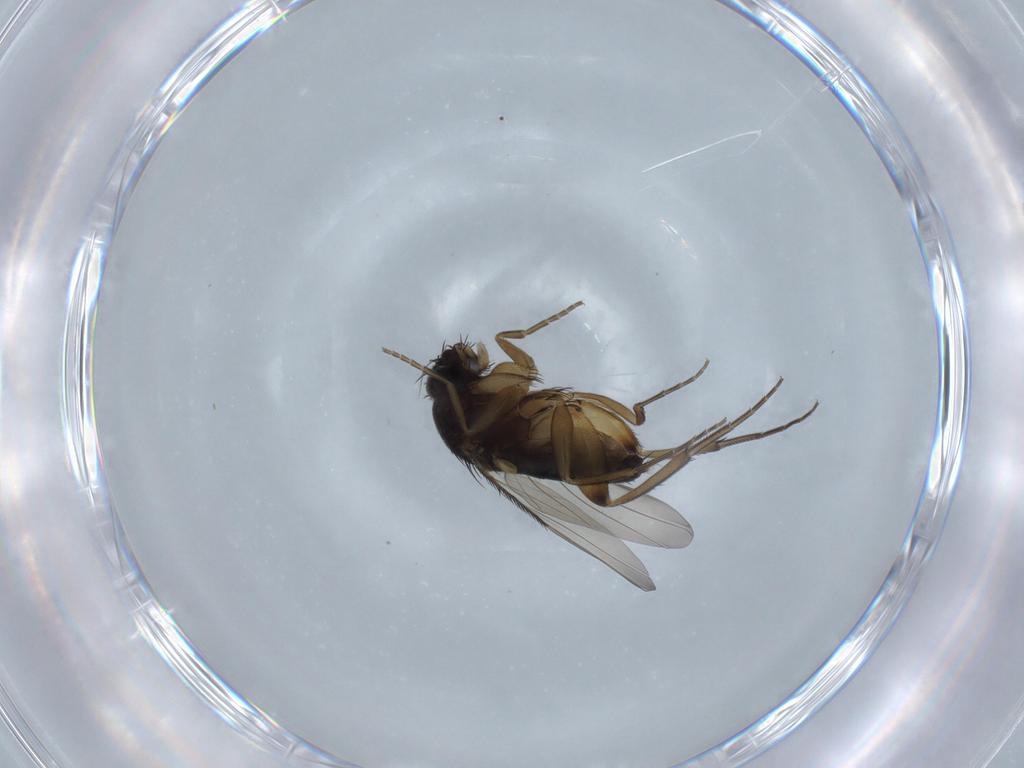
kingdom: Animalia
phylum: Arthropoda
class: Insecta
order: Diptera
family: Phoridae
